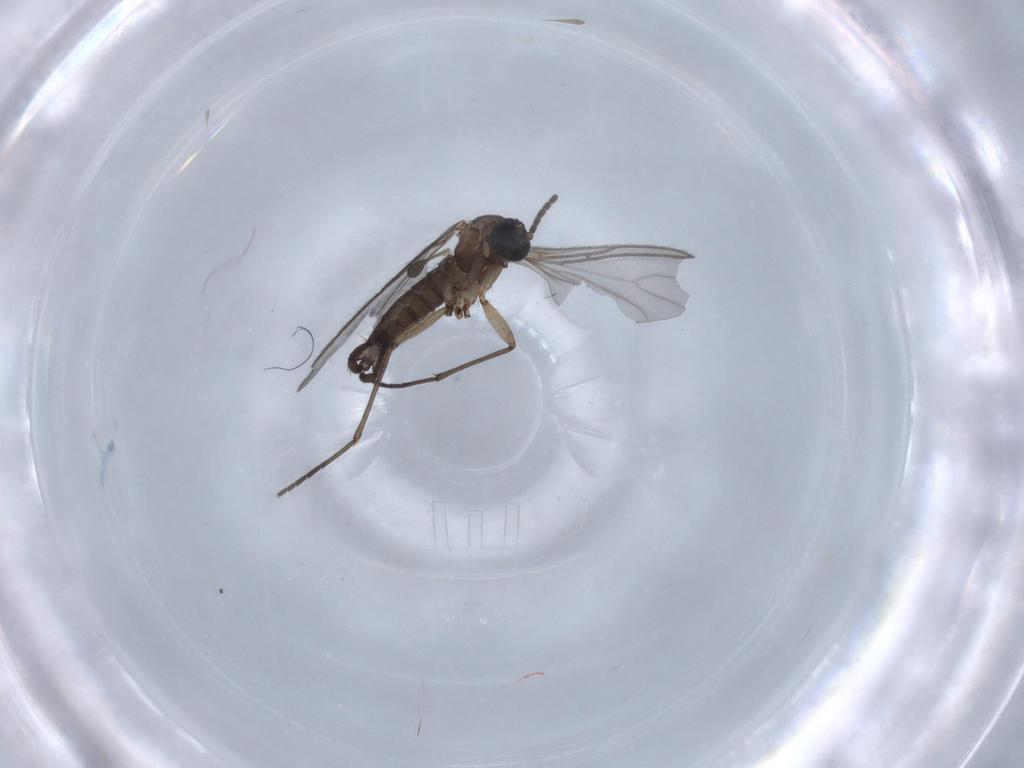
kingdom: Animalia
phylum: Arthropoda
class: Insecta
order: Diptera
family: Sciaridae
